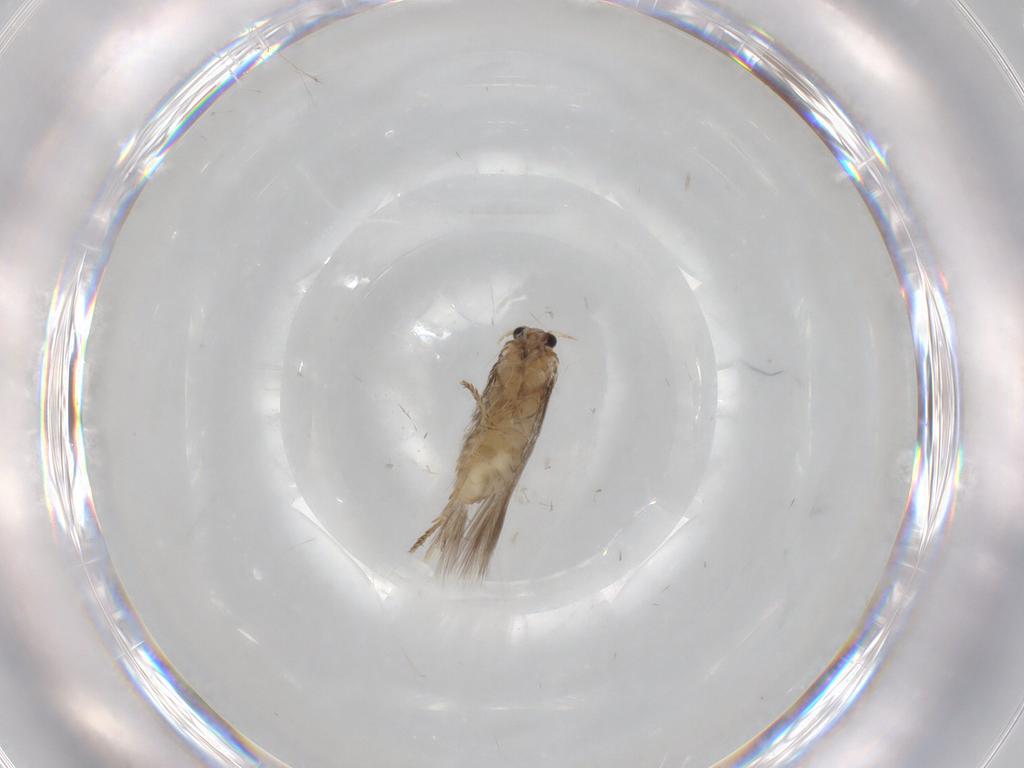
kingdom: Animalia
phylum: Arthropoda
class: Insecta
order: Lepidoptera
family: Nepticulidae
